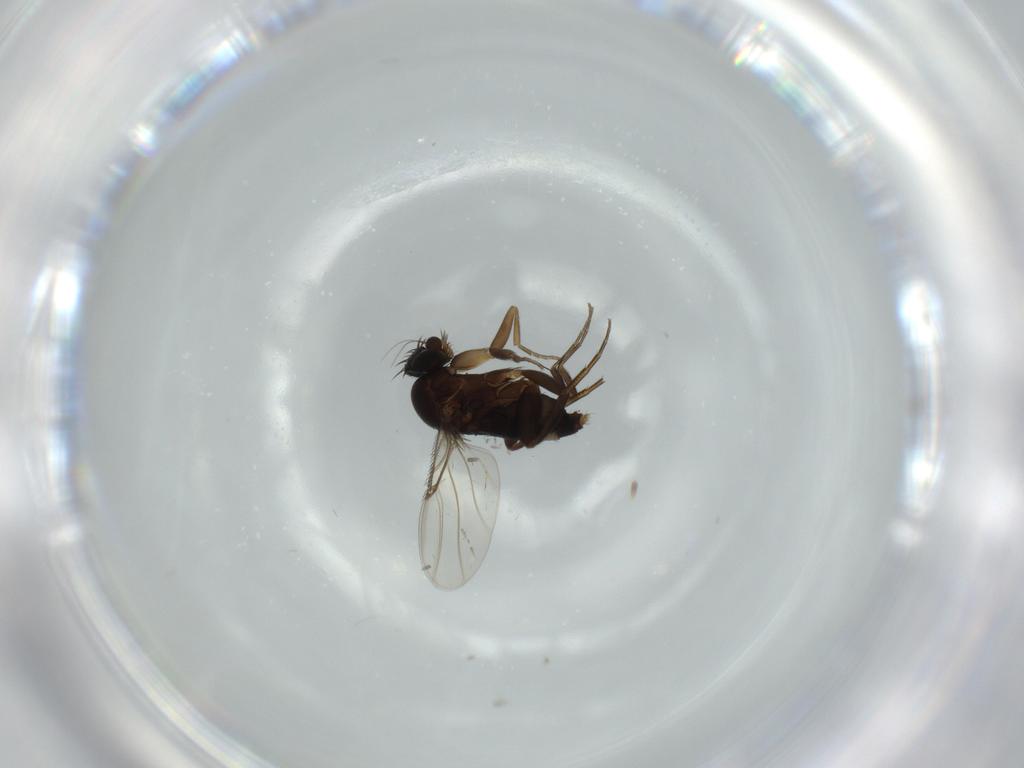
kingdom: Animalia
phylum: Arthropoda
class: Insecta
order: Diptera
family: Phoridae
